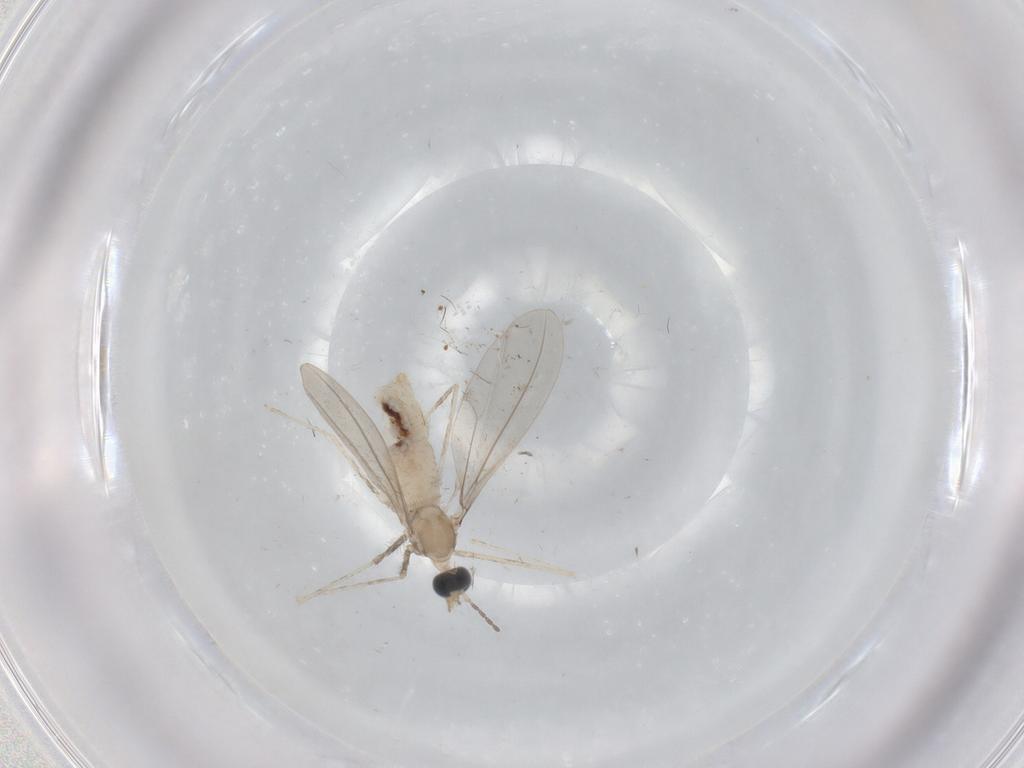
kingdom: Animalia
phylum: Arthropoda
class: Insecta
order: Diptera
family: Cecidomyiidae
